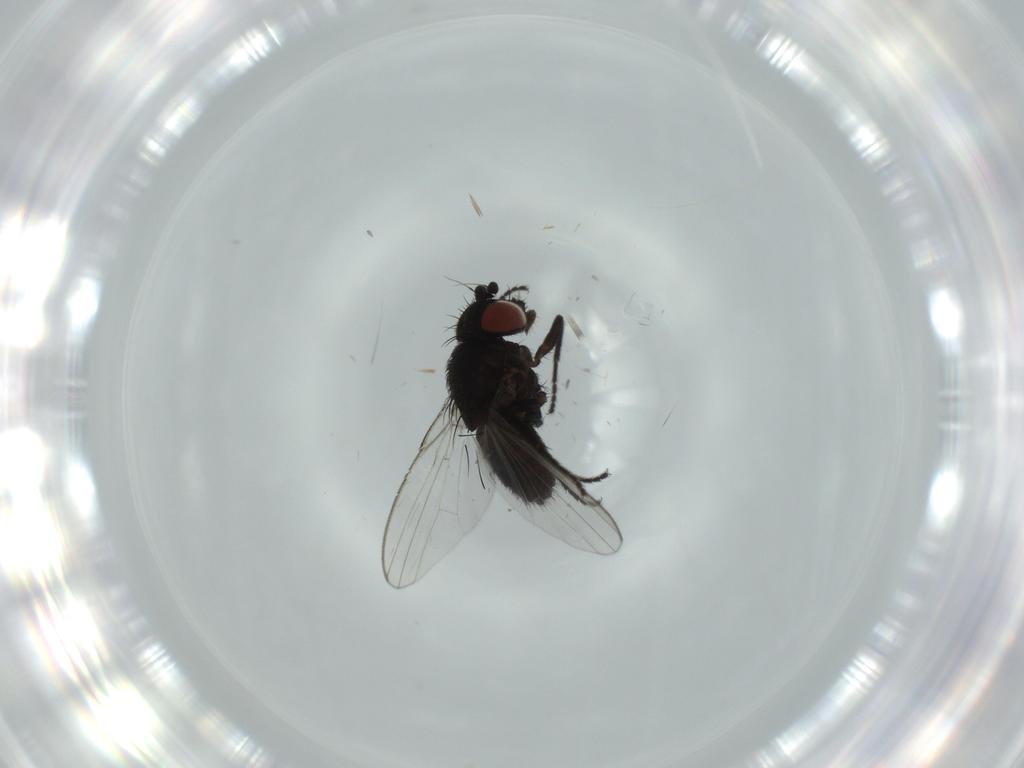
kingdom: Animalia
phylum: Arthropoda
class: Insecta
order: Diptera
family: Milichiidae
